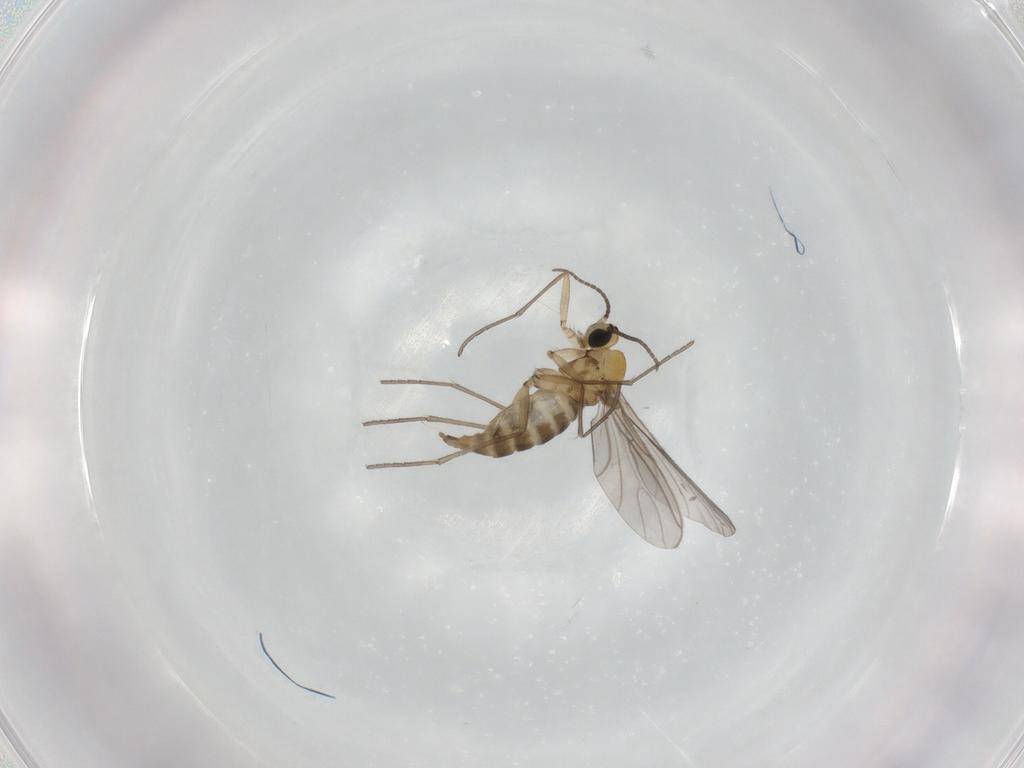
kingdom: Animalia
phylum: Arthropoda
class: Insecta
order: Diptera
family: Sciaridae
